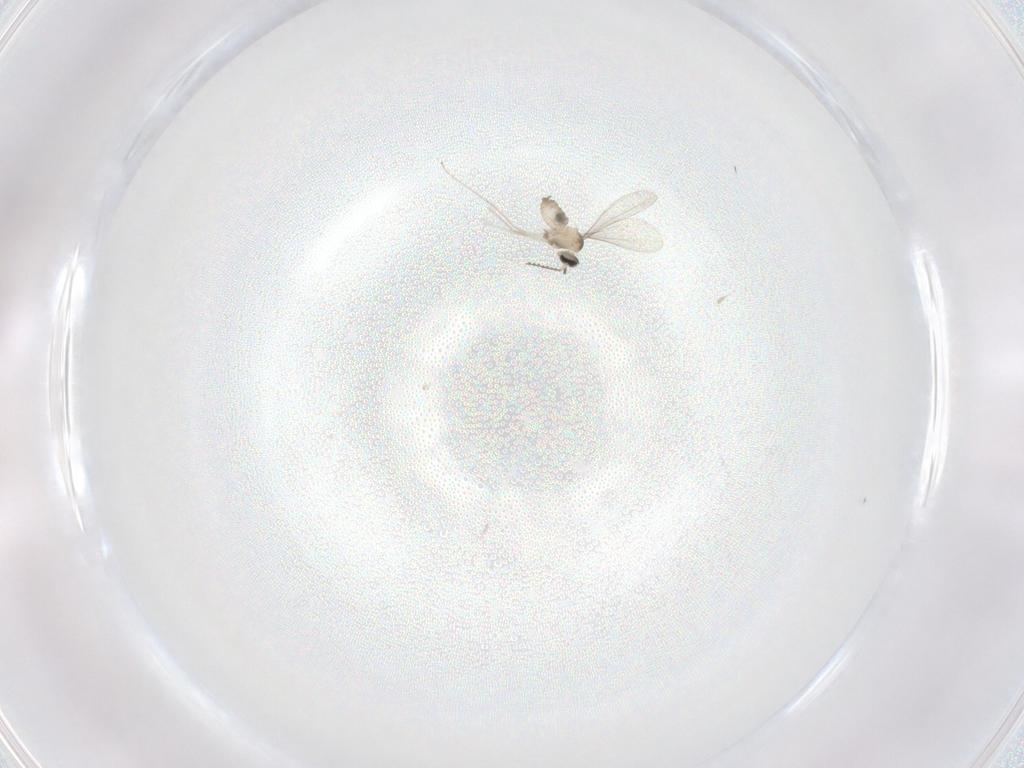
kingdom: Animalia
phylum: Arthropoda
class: Insecta
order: Diptera
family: Cecidomyiidae
